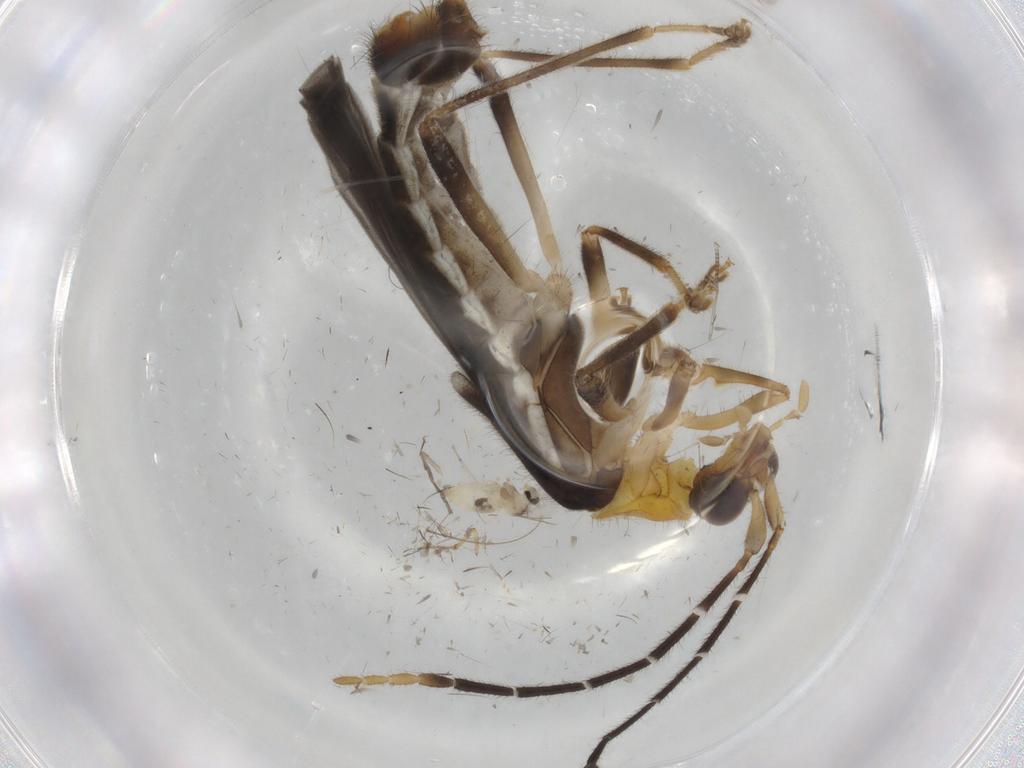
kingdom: Animalia
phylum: Arthropoda
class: Insecta
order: Coleoptera
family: Cantharidae
